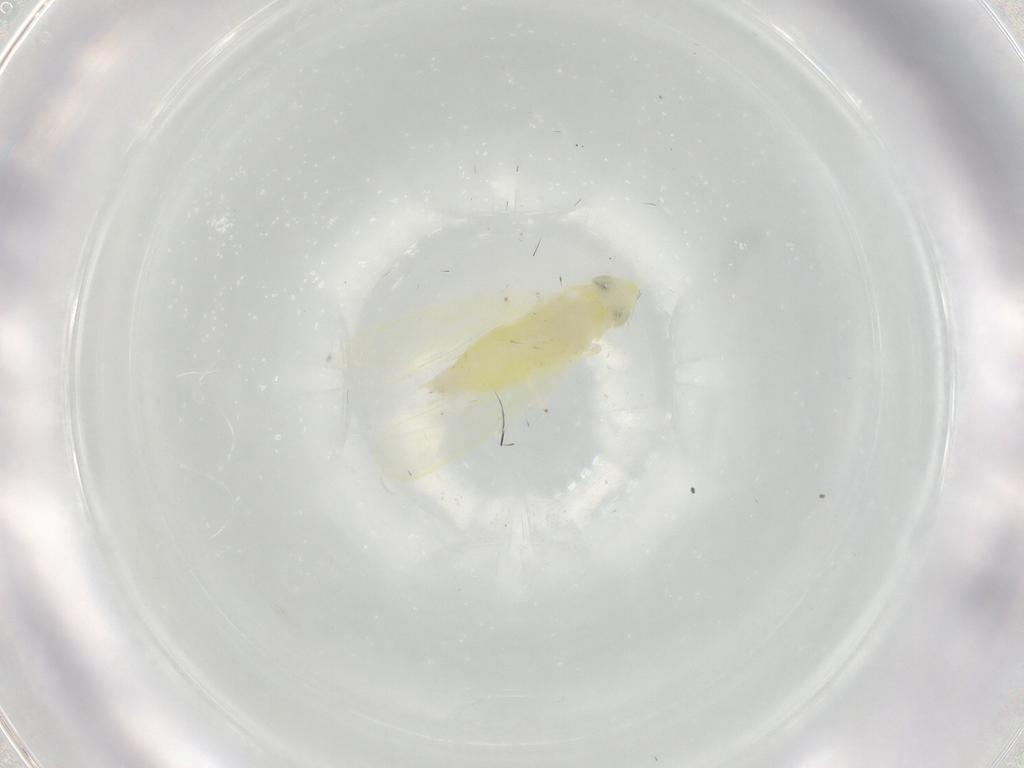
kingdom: Animalia
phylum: Arthropoda
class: Insecta
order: Hemiptera
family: Cicadellidae
